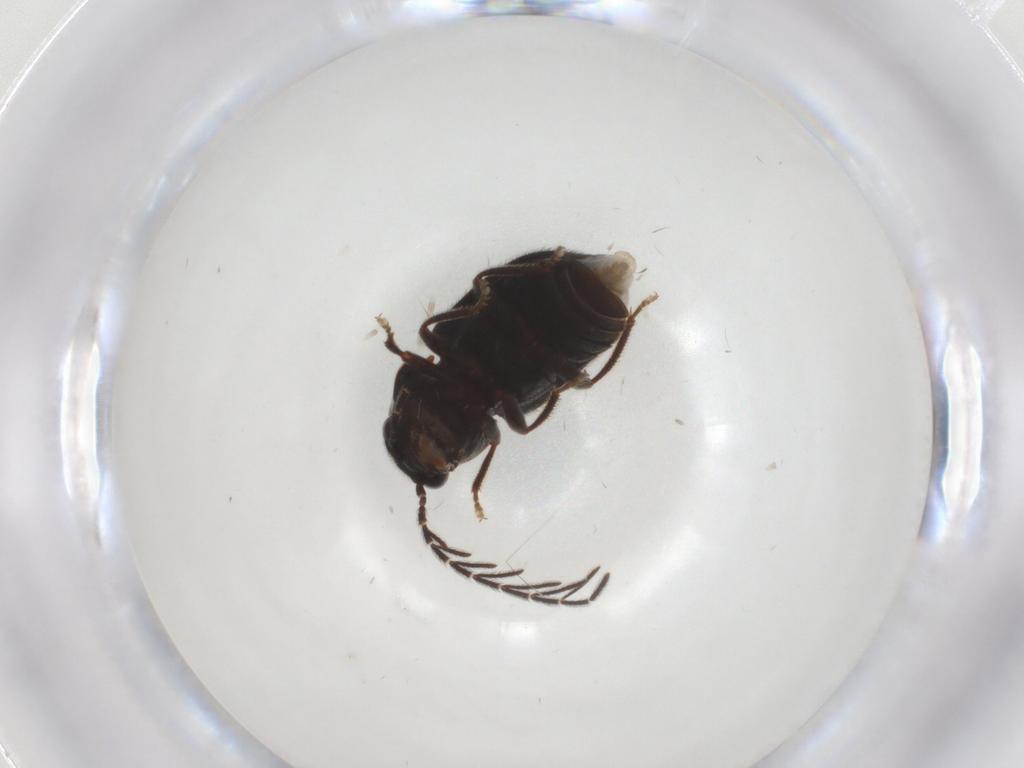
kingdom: Animalia
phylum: Arthropoda
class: Insecta
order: Coleoptera
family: Ptilodactylidae
